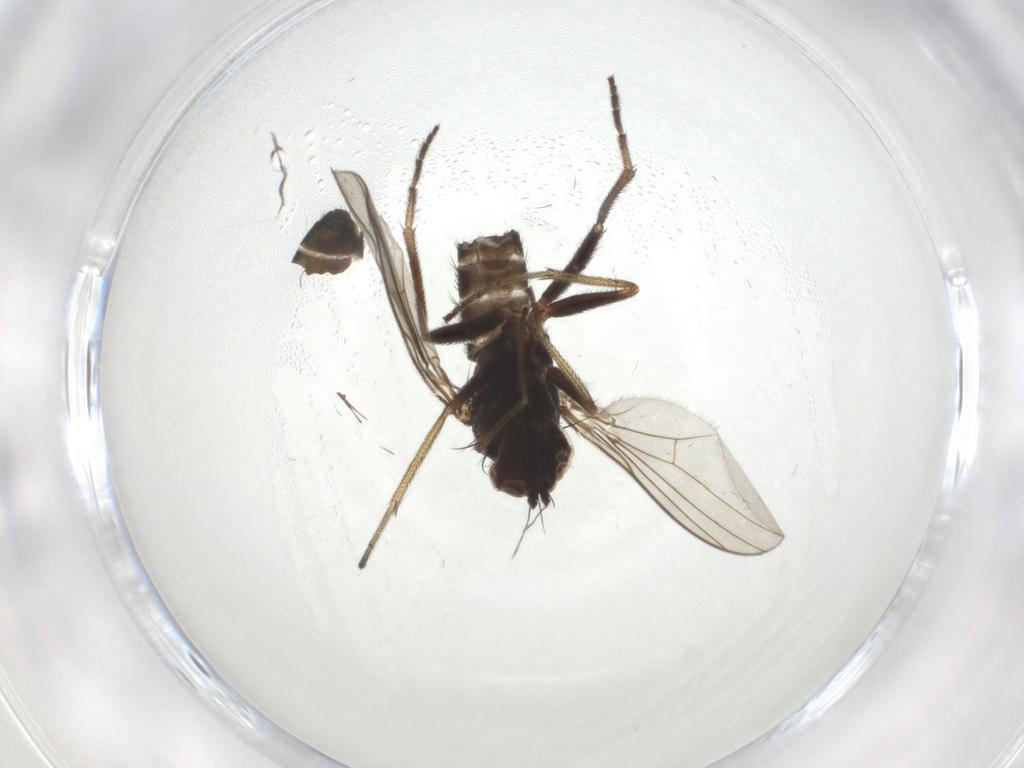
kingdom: Animalia
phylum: Arthropoda
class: Insecta
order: Diptera
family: Dolichopodidae
